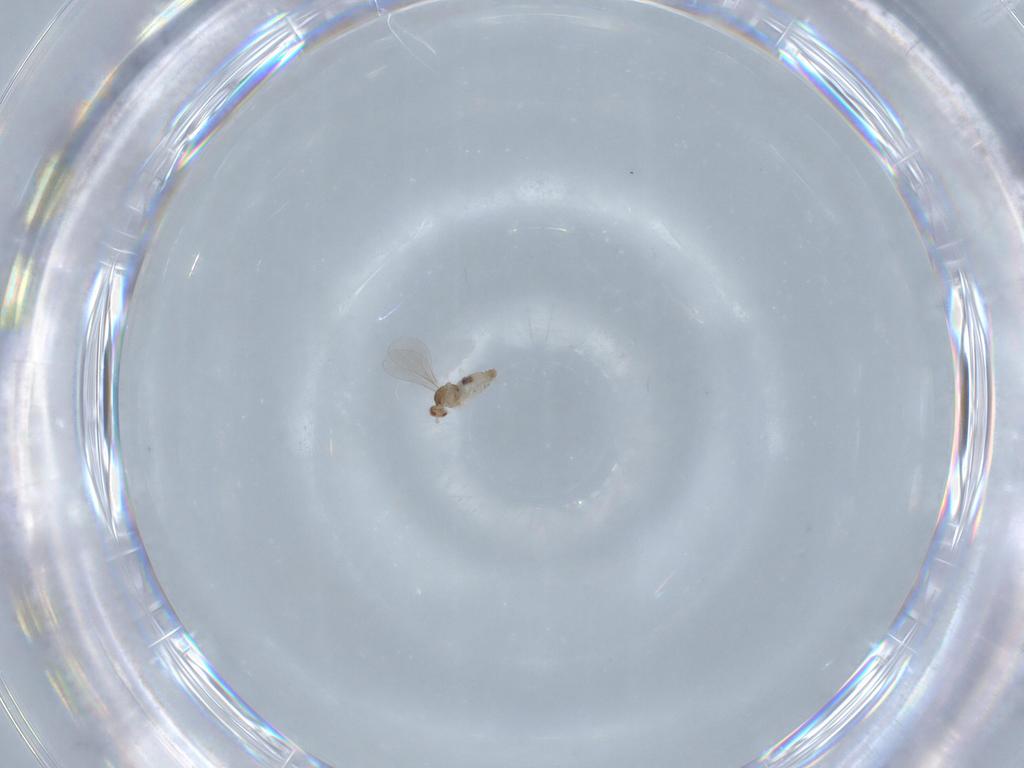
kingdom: Animalia
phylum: Arthropoda
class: Insecta
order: Diptera
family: Cecidomyiidae
